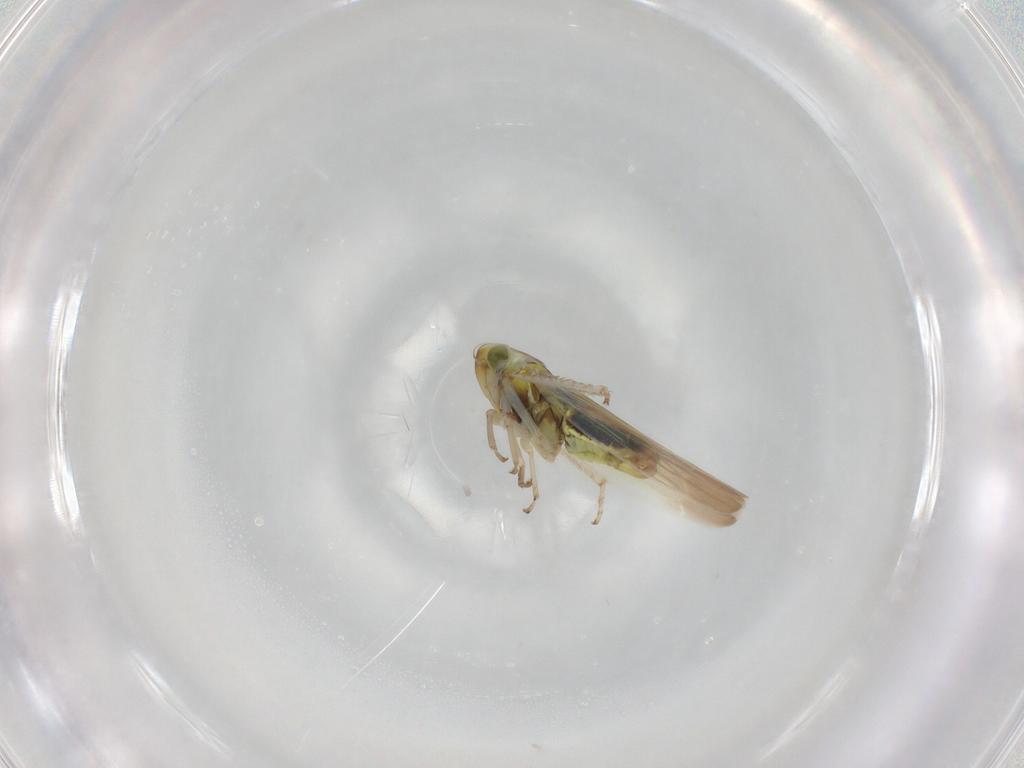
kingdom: Animalia
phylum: Arthropoda
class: Insecta
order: Hemiptera
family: Cicadellidae
